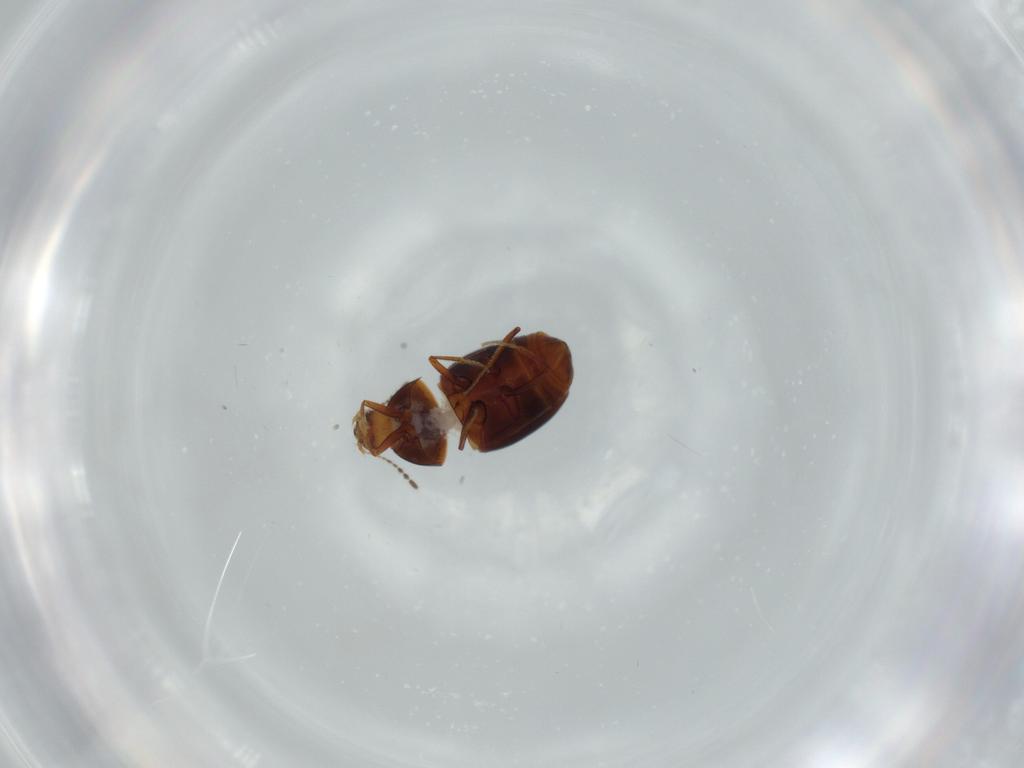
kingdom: Animalia
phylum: Arthropoda
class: Insecta
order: Coleoptera
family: Staphylinidae
